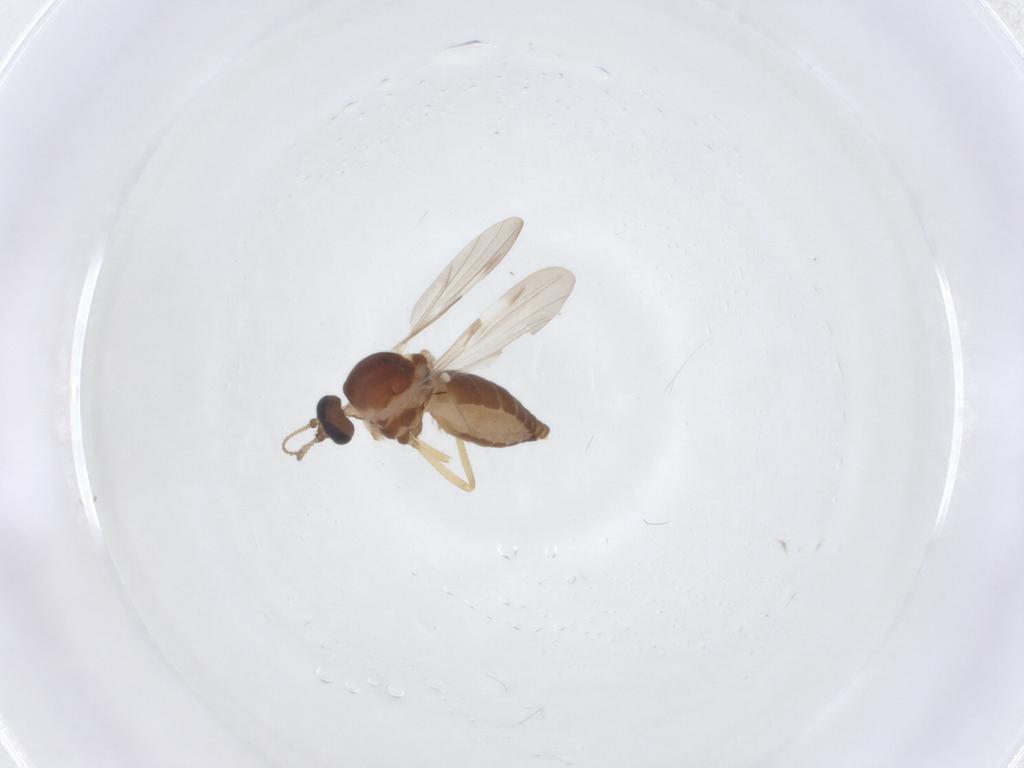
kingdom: Animalia
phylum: Arthropoda
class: Insecta
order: Diptera
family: Ceratopogonidae
